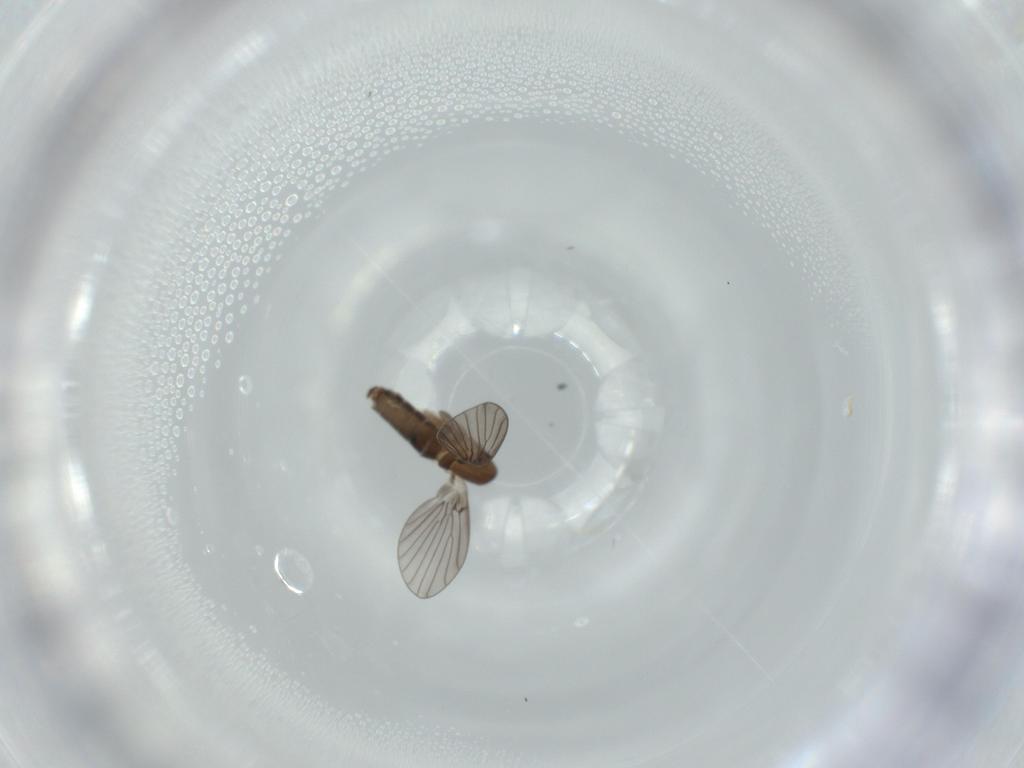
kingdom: Animalia
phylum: Arthropoda
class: Insecta
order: Diptera
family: Psychodidae
